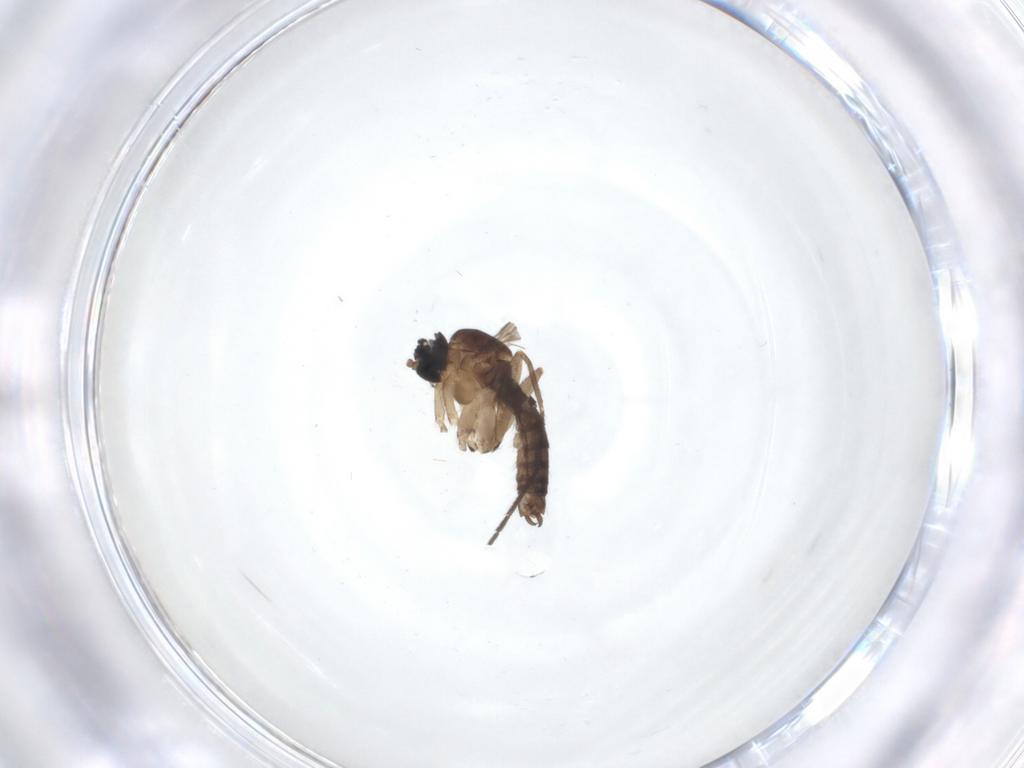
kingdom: Animalia
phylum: Arthropoda
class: Insecta
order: Diptera
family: Sciaridae
